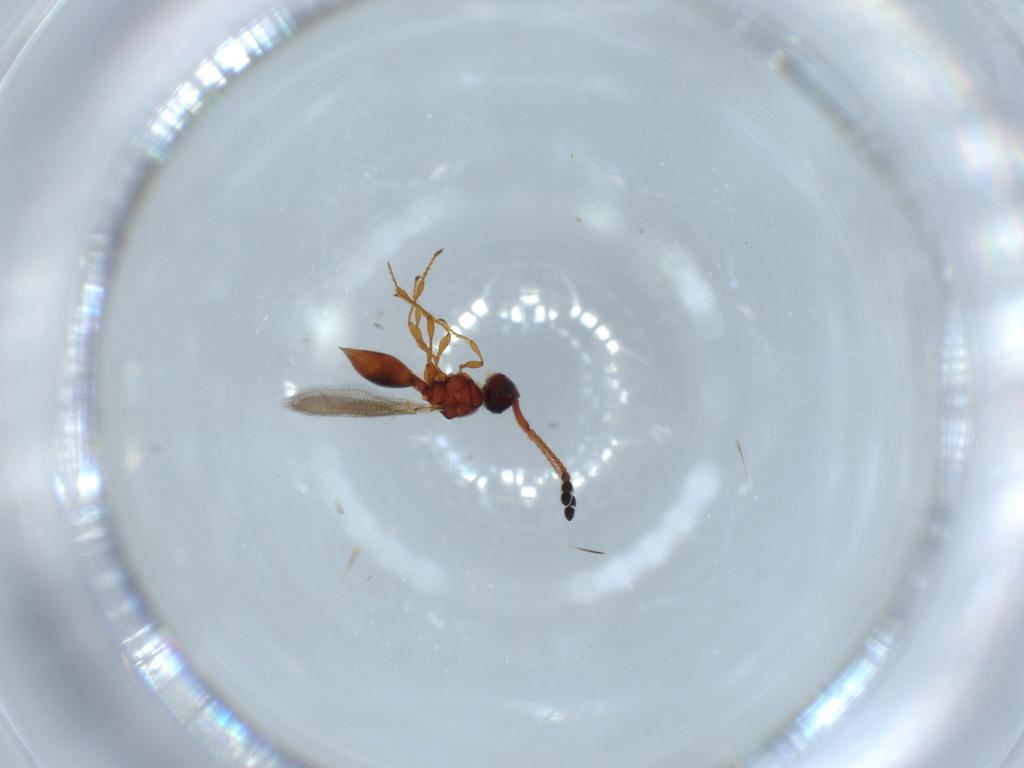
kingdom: Animalia
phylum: Arthropoda
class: Insecta
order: Hymenoptera
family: Diapriidae
